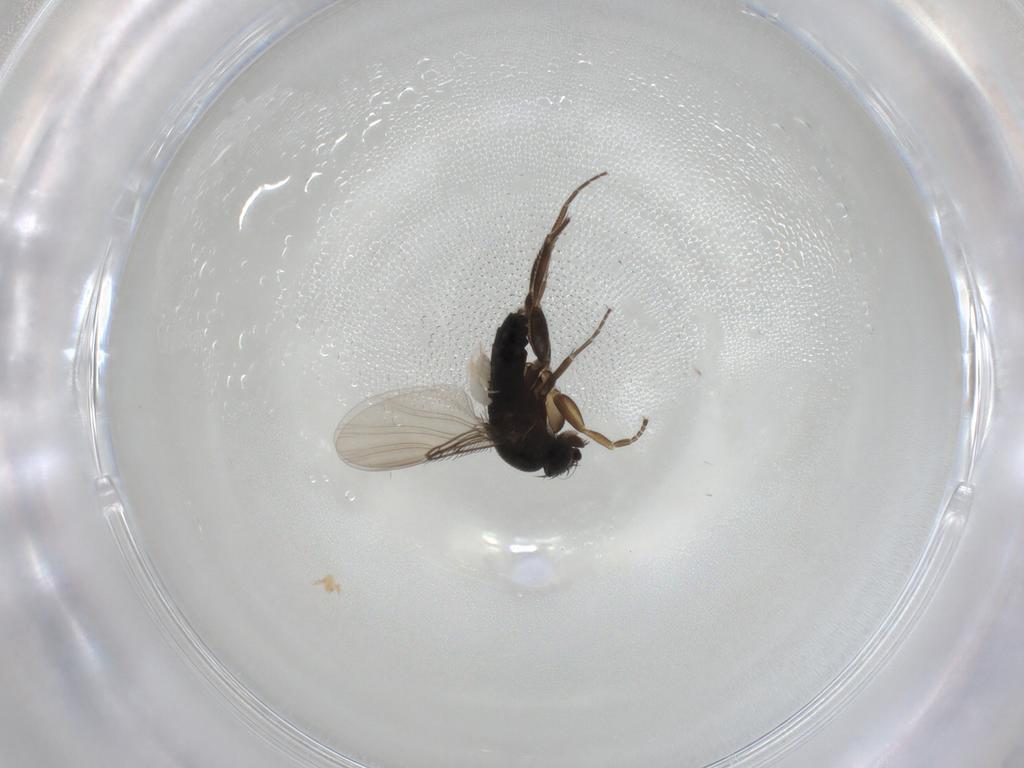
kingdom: Animalia
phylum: Arthropoda
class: Insecta
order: Diptera
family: Phoridae
